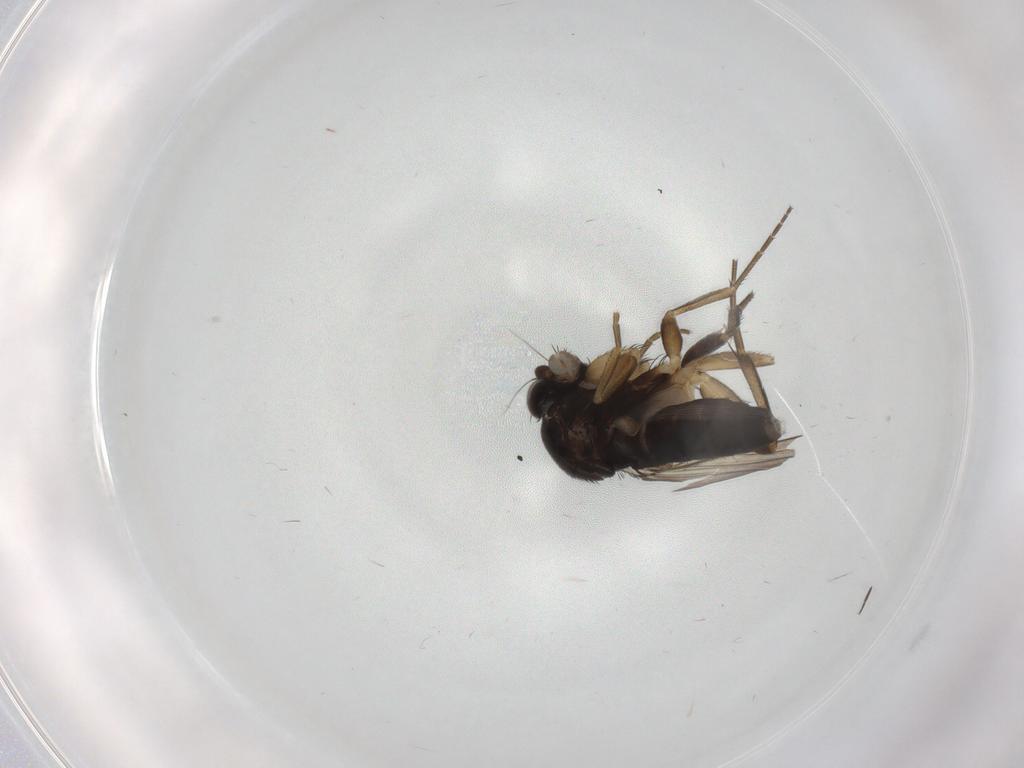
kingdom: Animalia
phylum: Arthropoda
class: Insecta
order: Diptera
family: Phoridae
